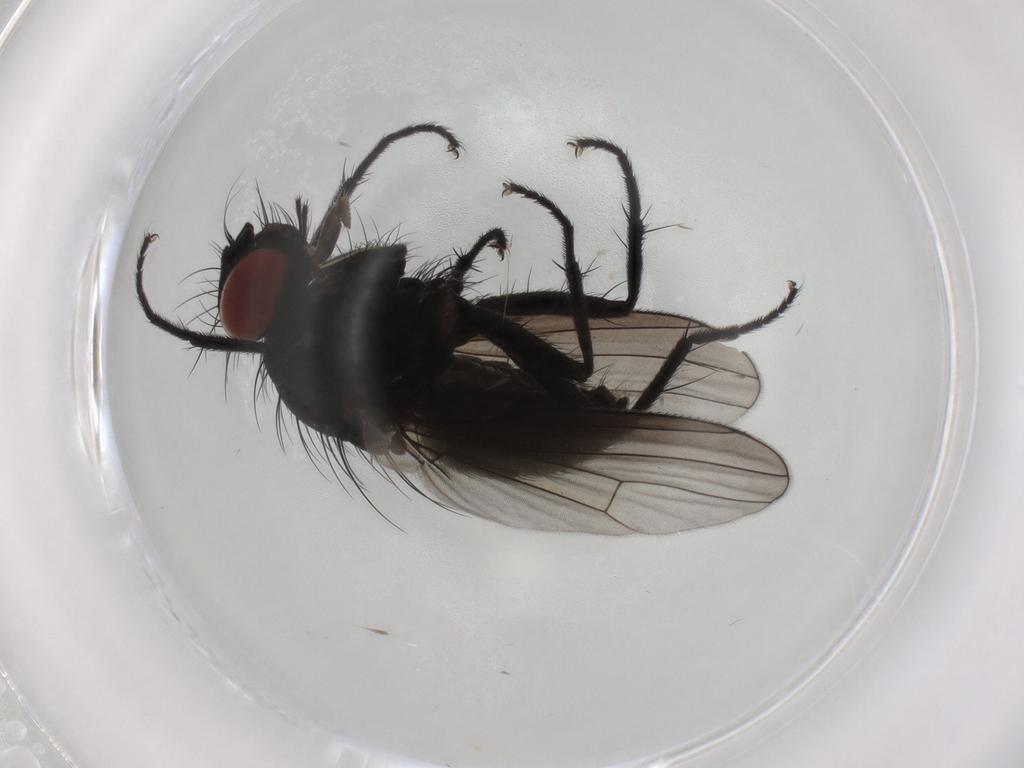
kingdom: Animalia
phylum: Arthropoda
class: Insecta
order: Diptera
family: Muscidae
